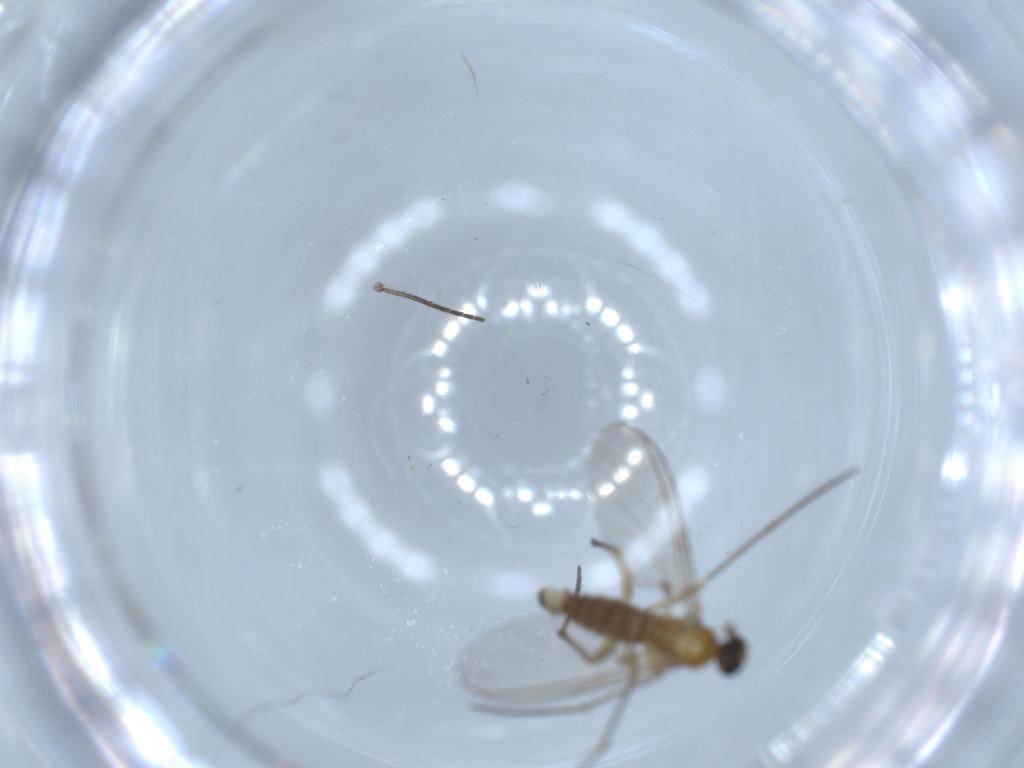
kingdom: Animalia
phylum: Arthropoda
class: Insecta
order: Diptera
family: Sciaridae
